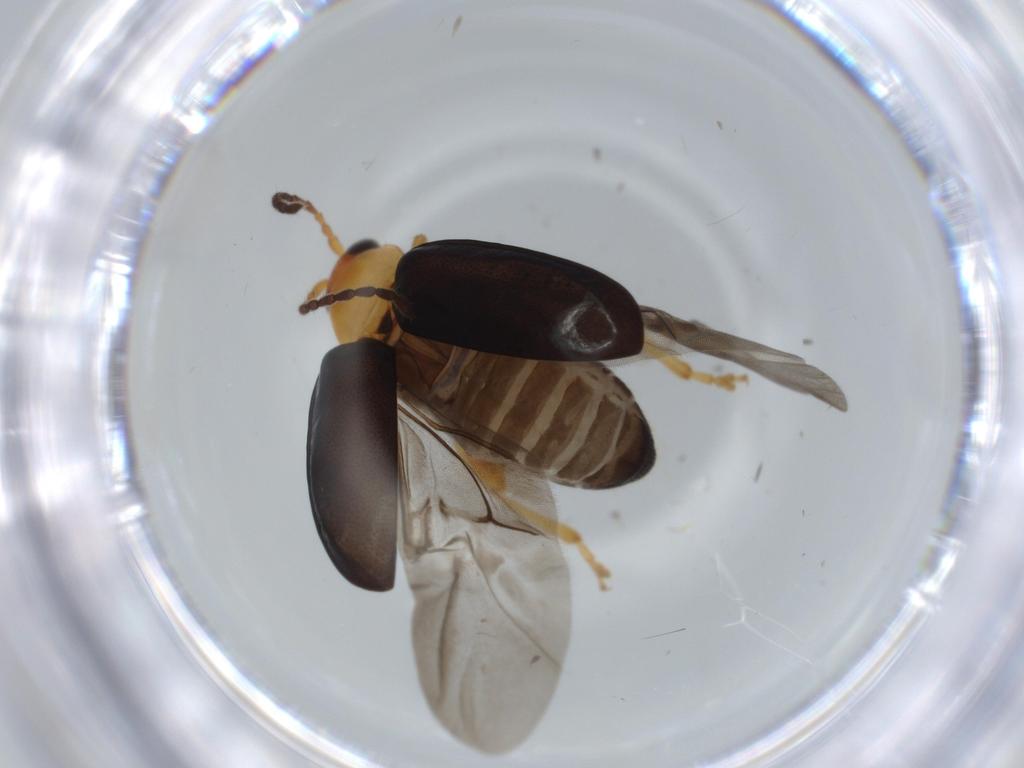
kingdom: Animalia
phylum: Arthropoda
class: Insecta
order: Coleoptera
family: Chrysomelidae
